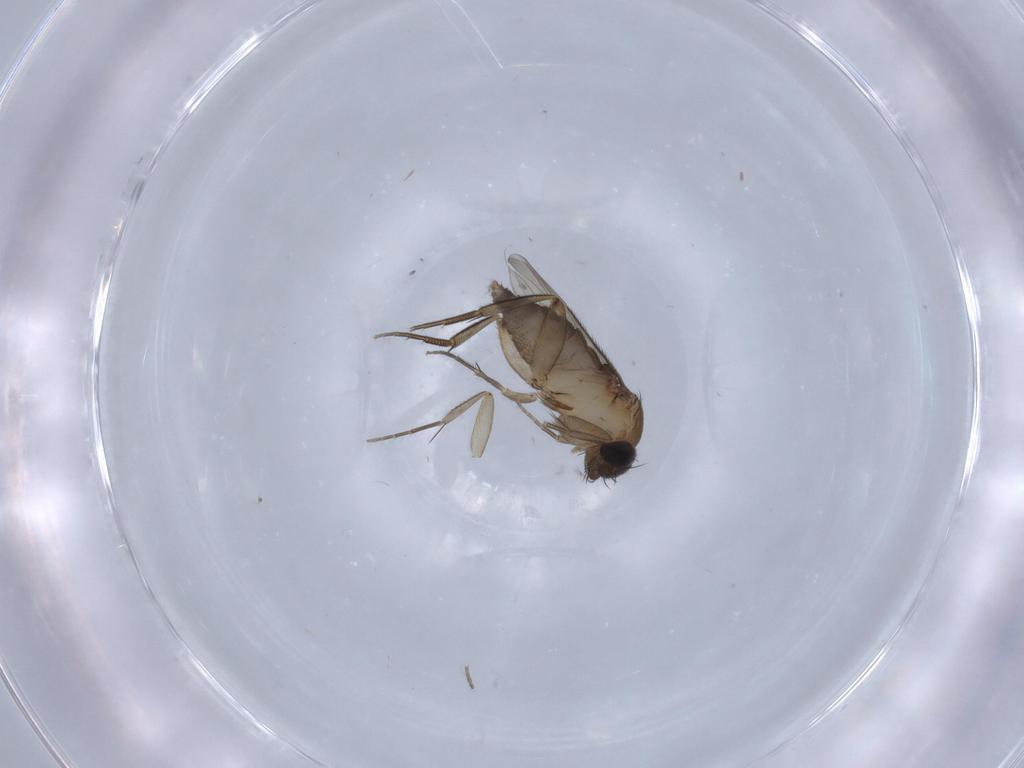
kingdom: Animalia
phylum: Arthropoda
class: Insecta
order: Diptera
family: Phoridae
